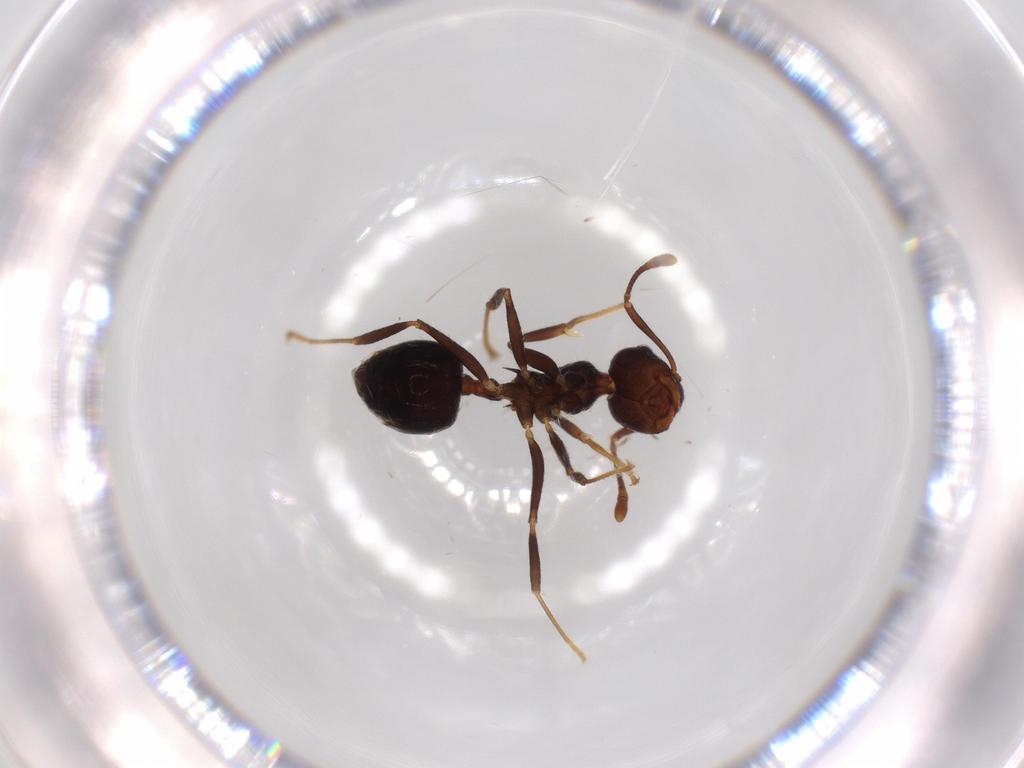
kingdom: Animalia
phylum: Arthropoda
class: Insecta
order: Hymenoptera
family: Formicidae
